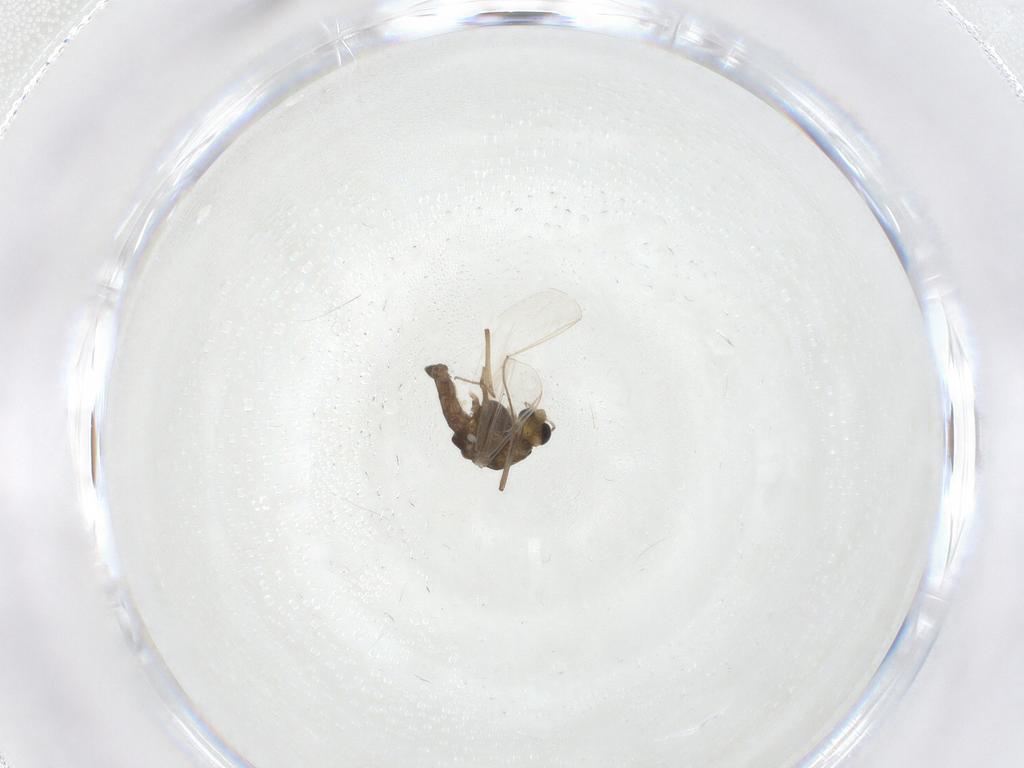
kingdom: Animalia
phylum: Arthropoda
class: Insecta
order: Diptera
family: Chironomidae
